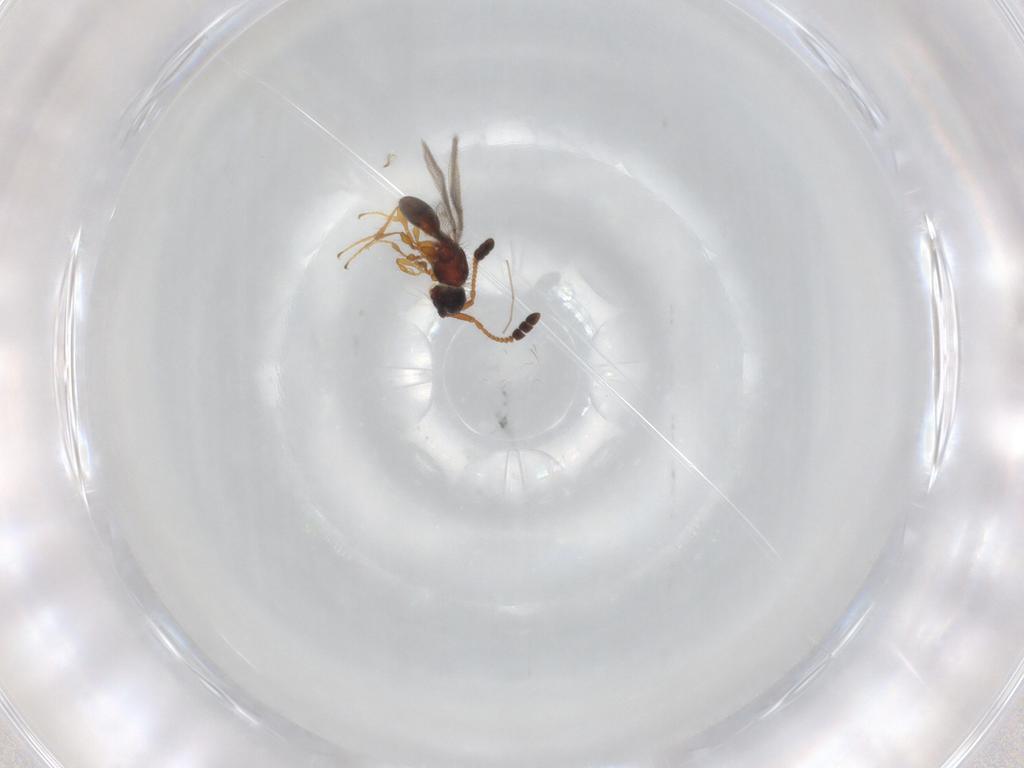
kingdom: Animalia
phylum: Arthropoda
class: Insecta
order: Hymenoptera
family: Diapriidae
